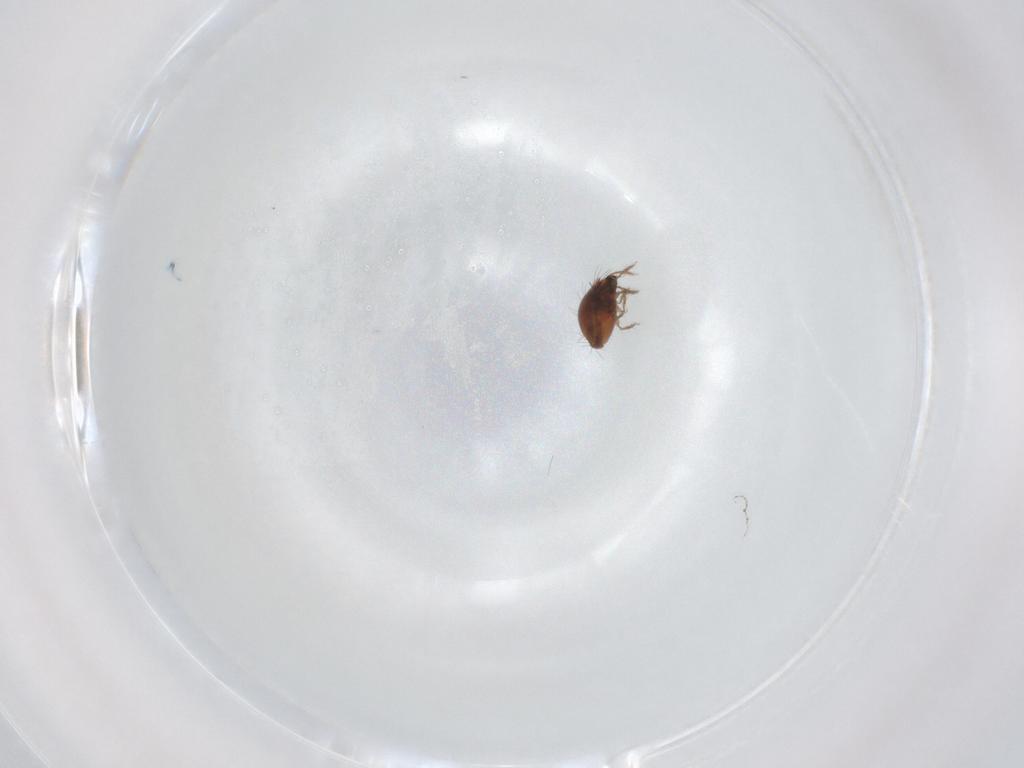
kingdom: Animalia
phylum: Arthropoda
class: Arachnida
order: Sarcoptiformes
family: Humerobatidae
